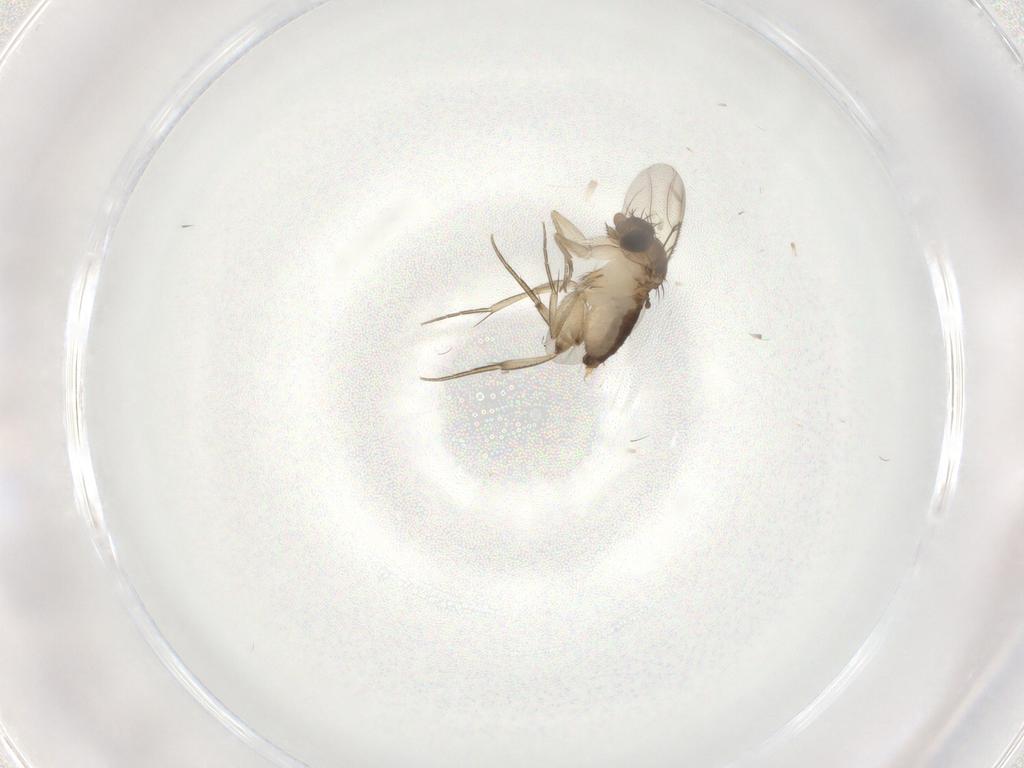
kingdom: Animalia
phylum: Arthropoda
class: Insecta
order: Diptera
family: Phoridae
